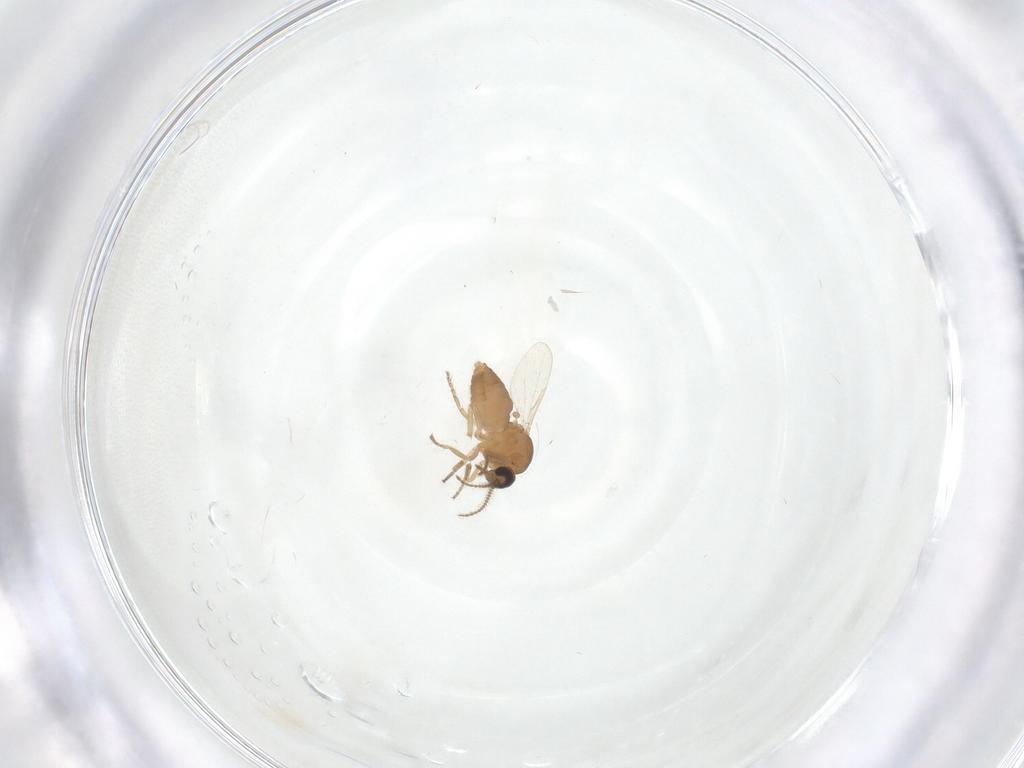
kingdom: Animalia
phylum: Arthropoda
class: Insecta
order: Diptera
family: Ceratopogonidae
